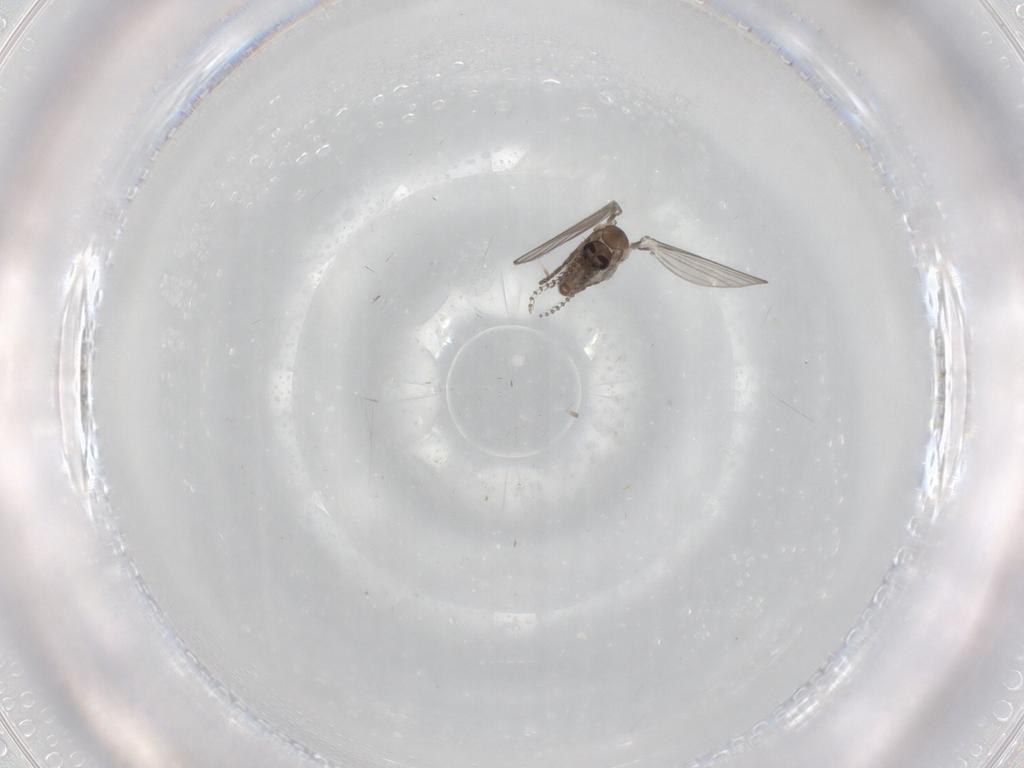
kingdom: Animalia
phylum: Arthropoda
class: Insecta
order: Diptera
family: Psychodidae
